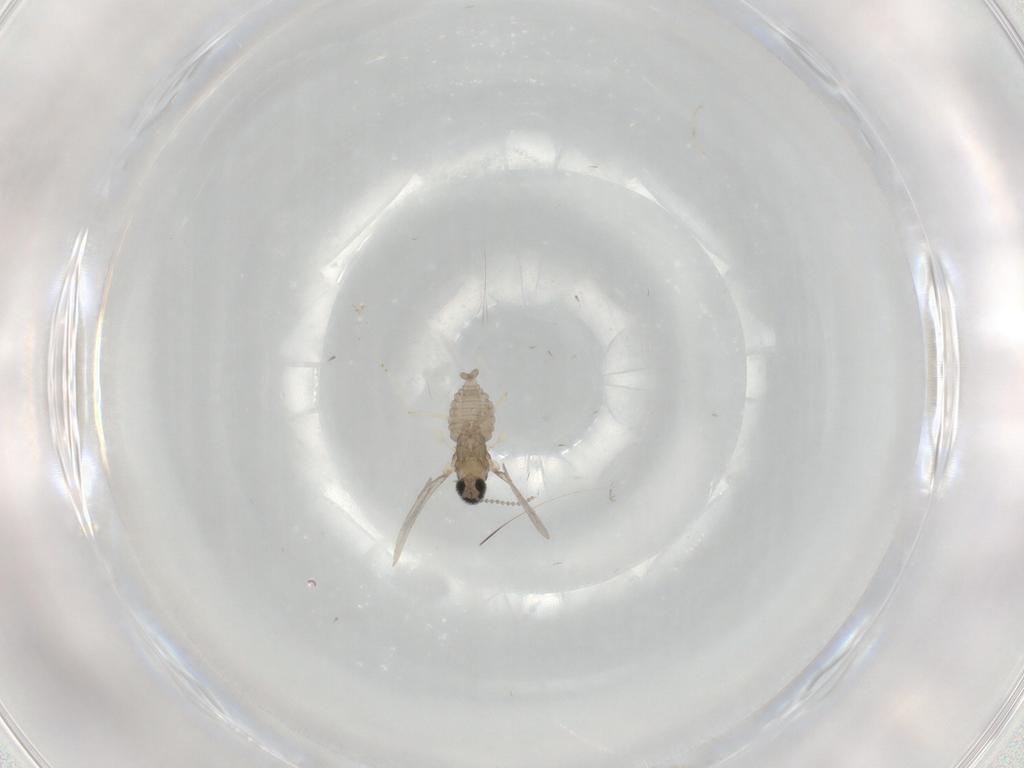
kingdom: Animalia
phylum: Arthropoda
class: Insecta
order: Diptera
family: Cecidomyiidae
